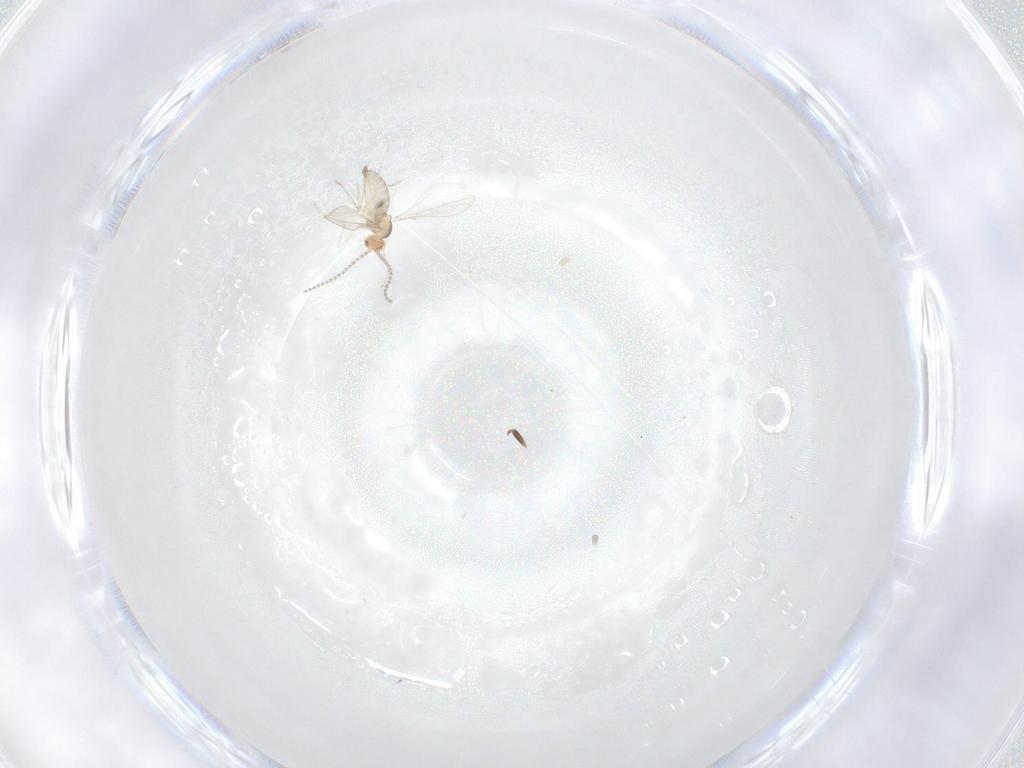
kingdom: Animalia
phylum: Arthropoda
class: Insecta
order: Diptera
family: Cecidomyiidae
